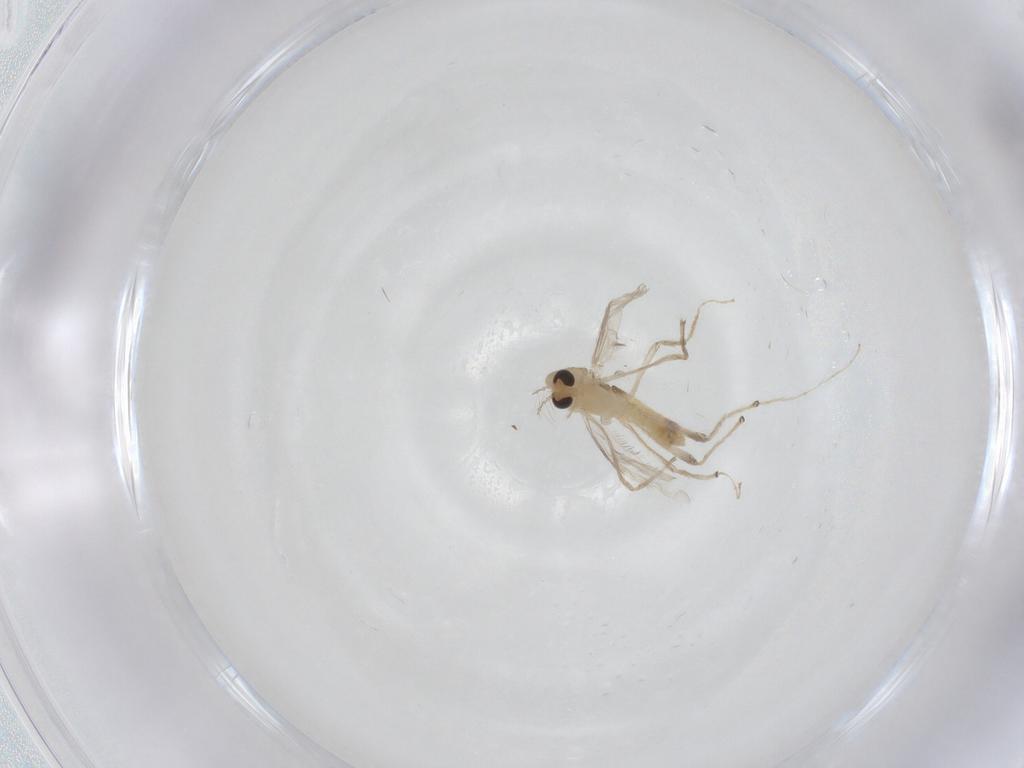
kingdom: Animalia
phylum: Arthropoda
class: Insecta
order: Diptera
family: Chironomidae
